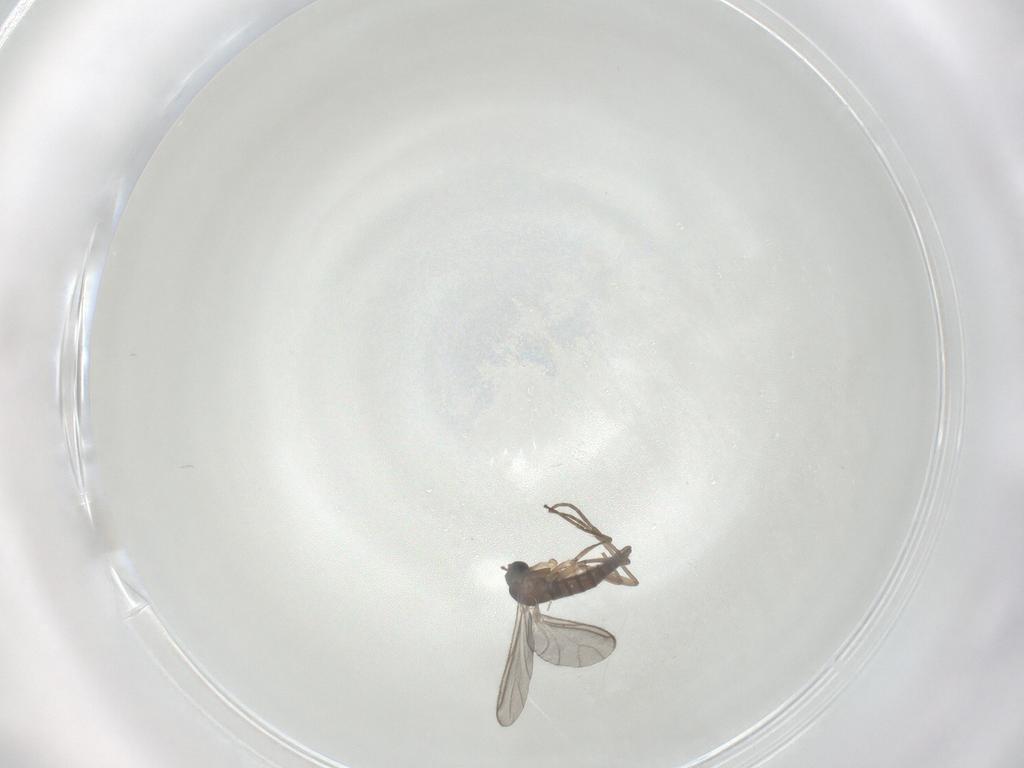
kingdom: Animalia
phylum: Arthropoda
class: Insecta
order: Diptera
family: Sciaridae
